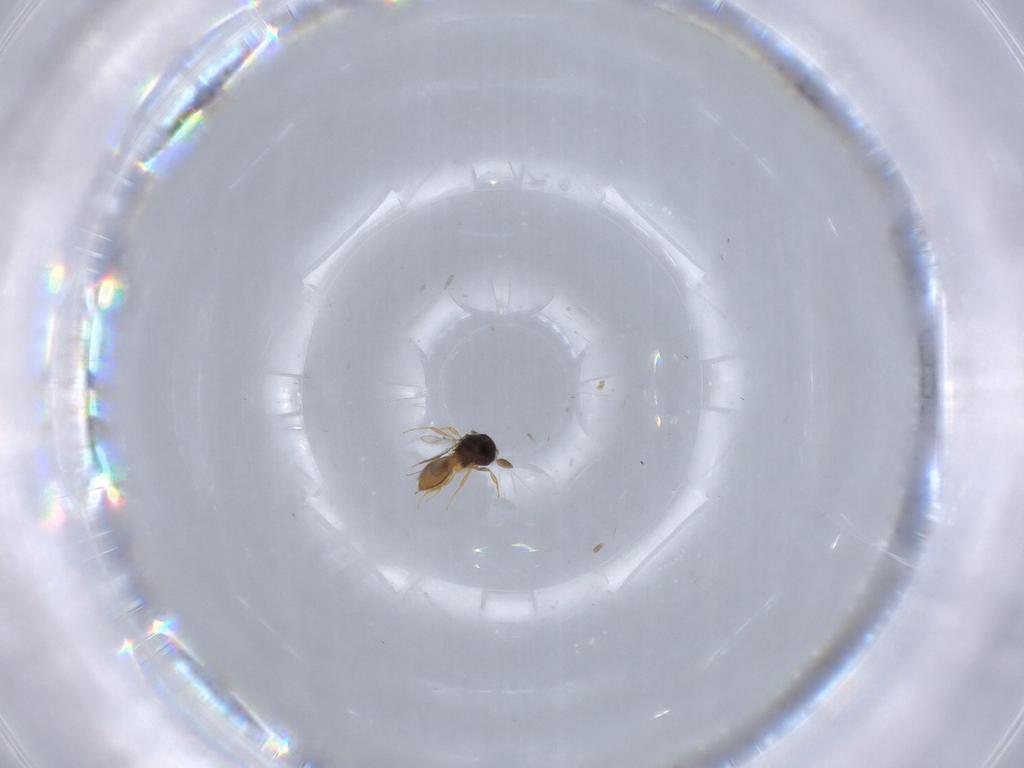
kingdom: Animalia
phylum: Arthropoda
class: Insecta
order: Hymenoptera
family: Scelionidae
